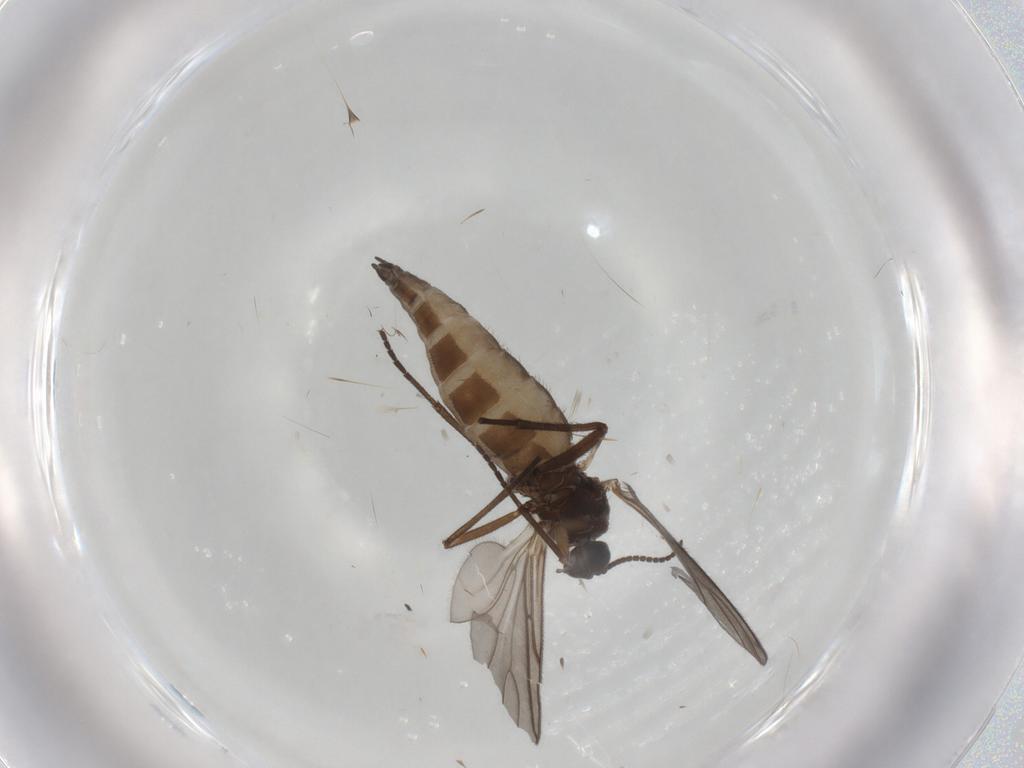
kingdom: Animalia
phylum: Arthropoda
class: Insecta
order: Diptera
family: Sciaridae
